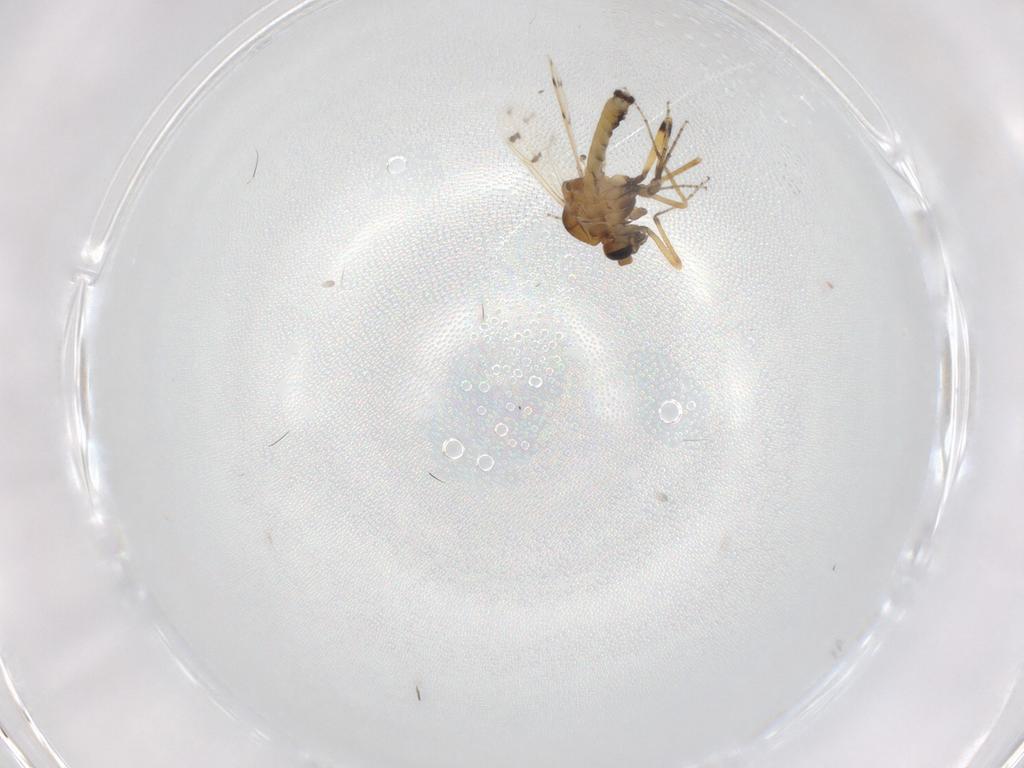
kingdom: Animalia
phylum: Arthropoda
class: Insecta
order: Diptera
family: Ceratopogonidae
